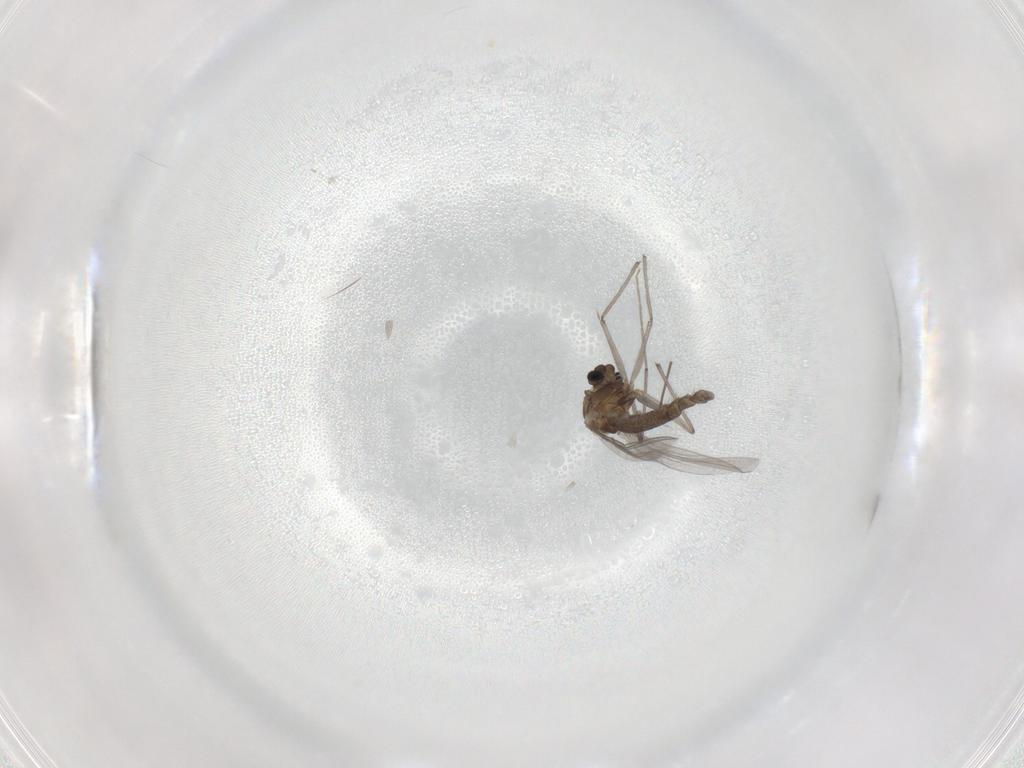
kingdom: Animalia
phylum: Arthropoda
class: Insecta
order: Diptera
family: Chironomidae
